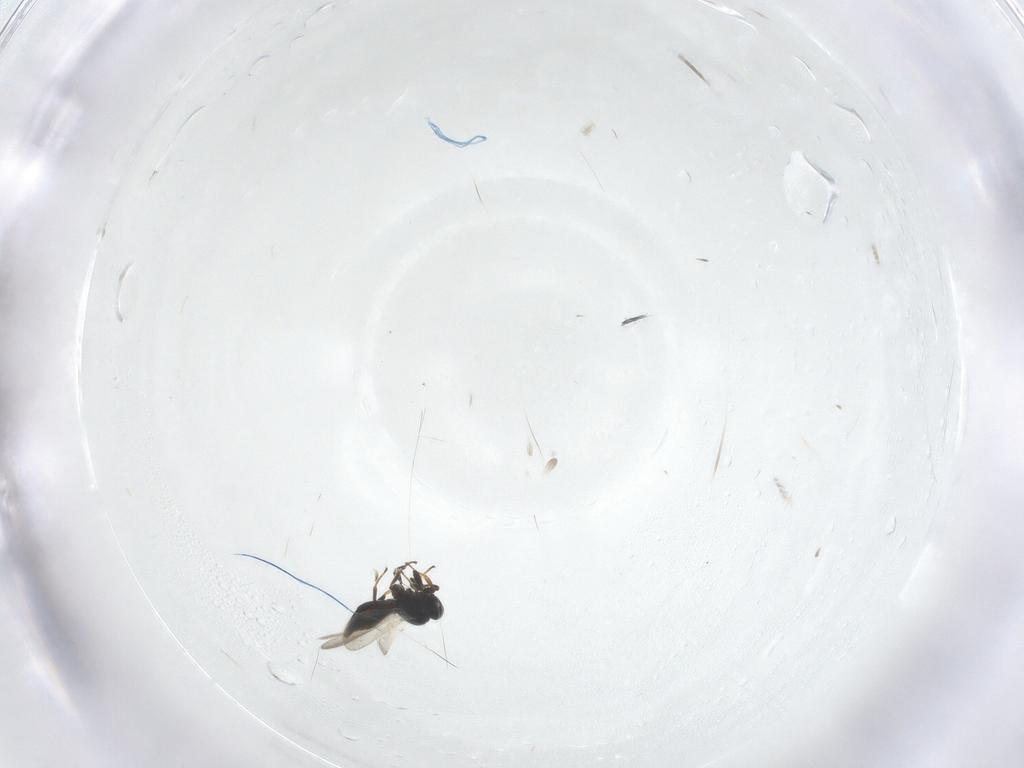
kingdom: Animalia
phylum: Arthropoda
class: Insecta
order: Hymenoptera
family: Platygastridae
